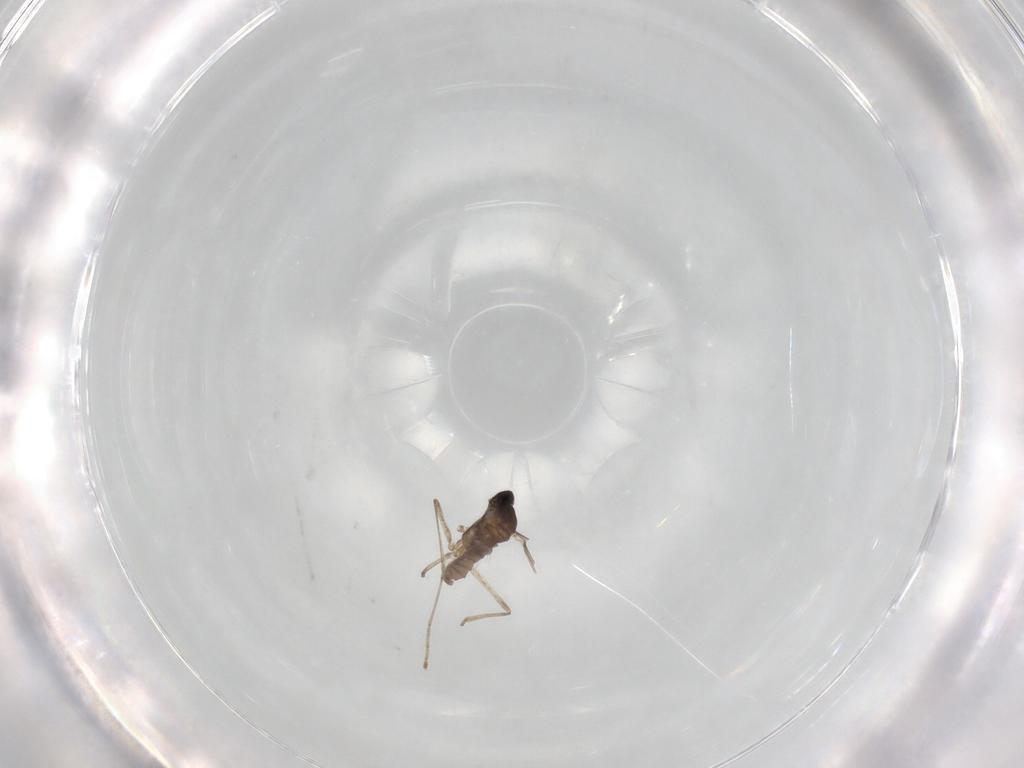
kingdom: Animalia
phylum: Arthropoda
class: Insecta
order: Diptera
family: Cecidomyiidae
